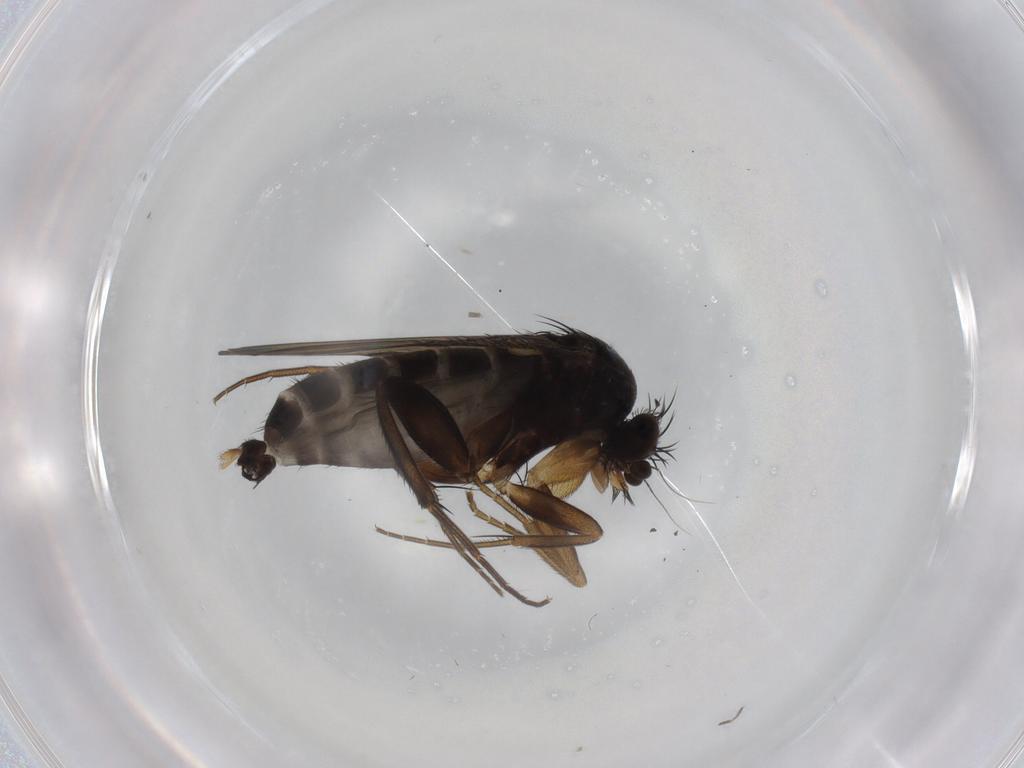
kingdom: Animalia
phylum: Arthropoda
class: Insecta
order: Diptera
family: Phoridae
